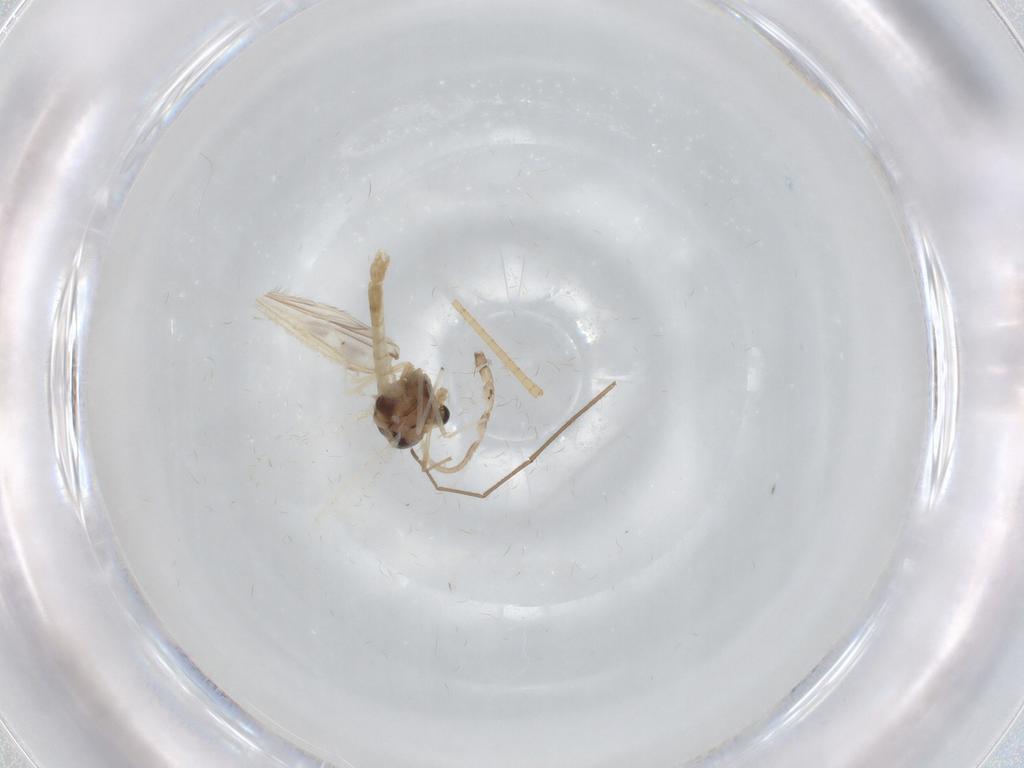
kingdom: Animalia
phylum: Arthropoda
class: Insecta
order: Diptera
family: Chironomidae
